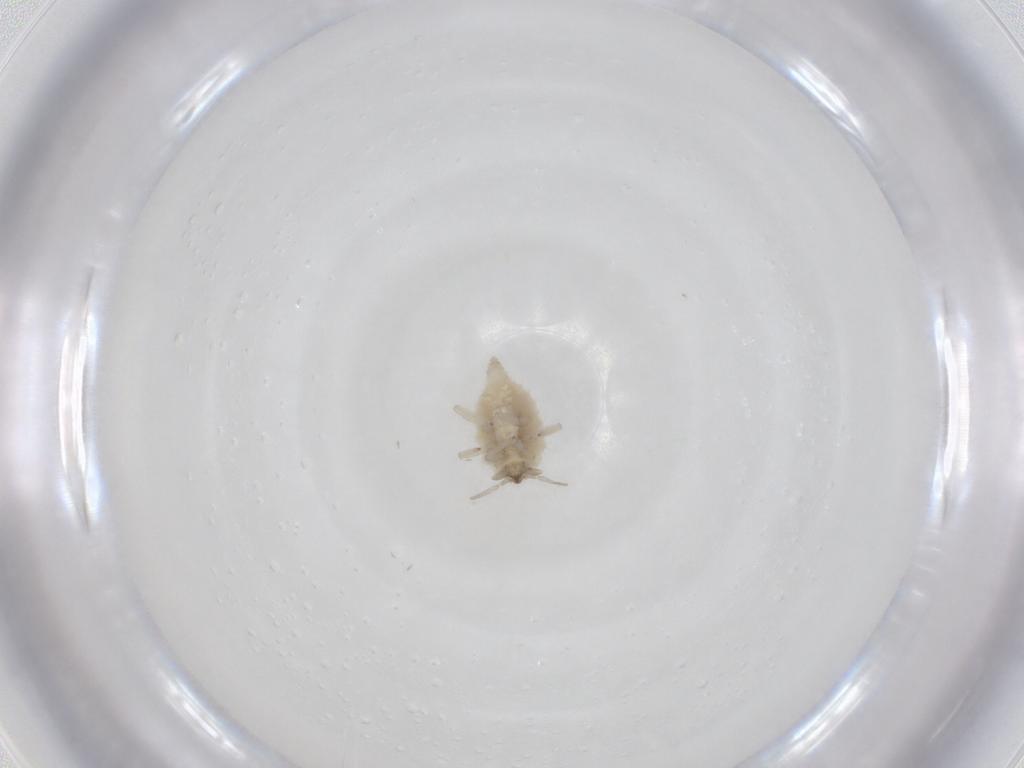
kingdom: Animalia
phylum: Arthropoda
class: Insecta
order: Neuroptera
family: Coniopterygidae
